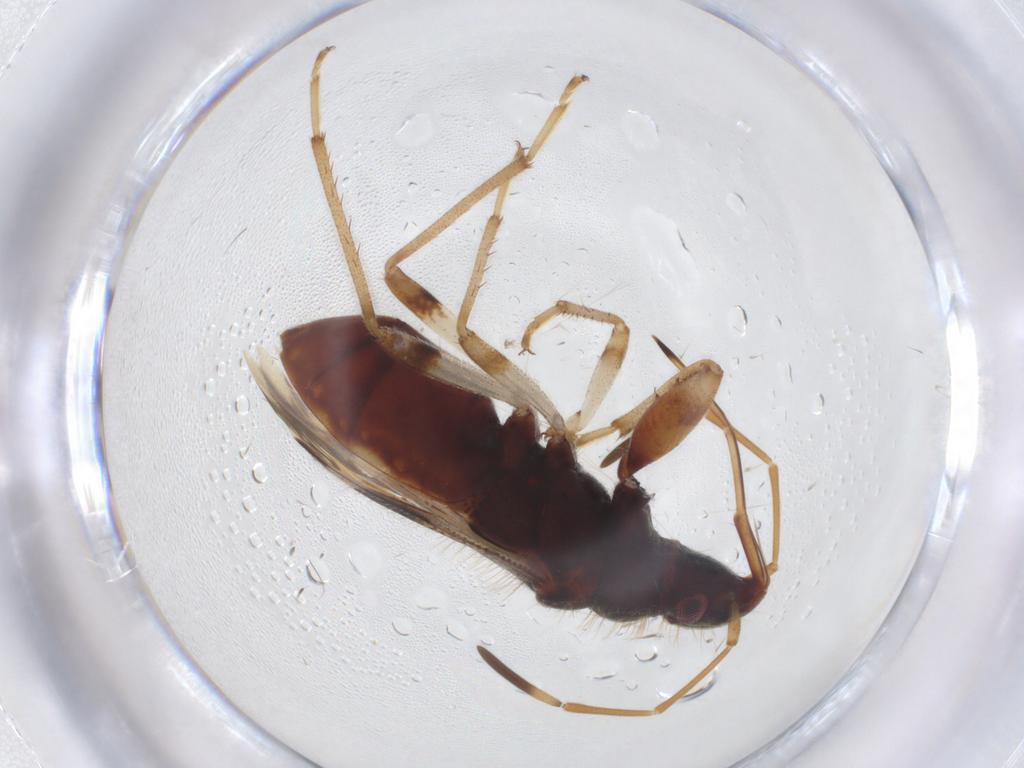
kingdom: Animalia
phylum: Arthropoda
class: Insecta
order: Hemiptera
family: Rhyparochromidae
